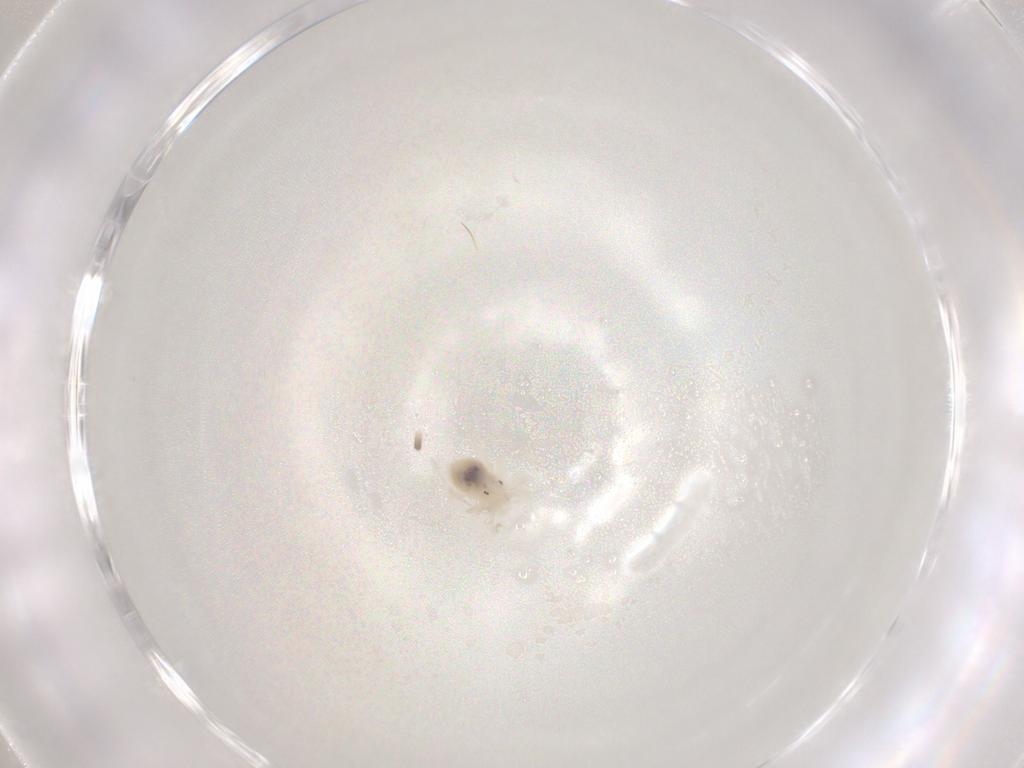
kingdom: Animalia
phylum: Arthropoda
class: Arachnida
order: Trombidiformes
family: Anystidae
